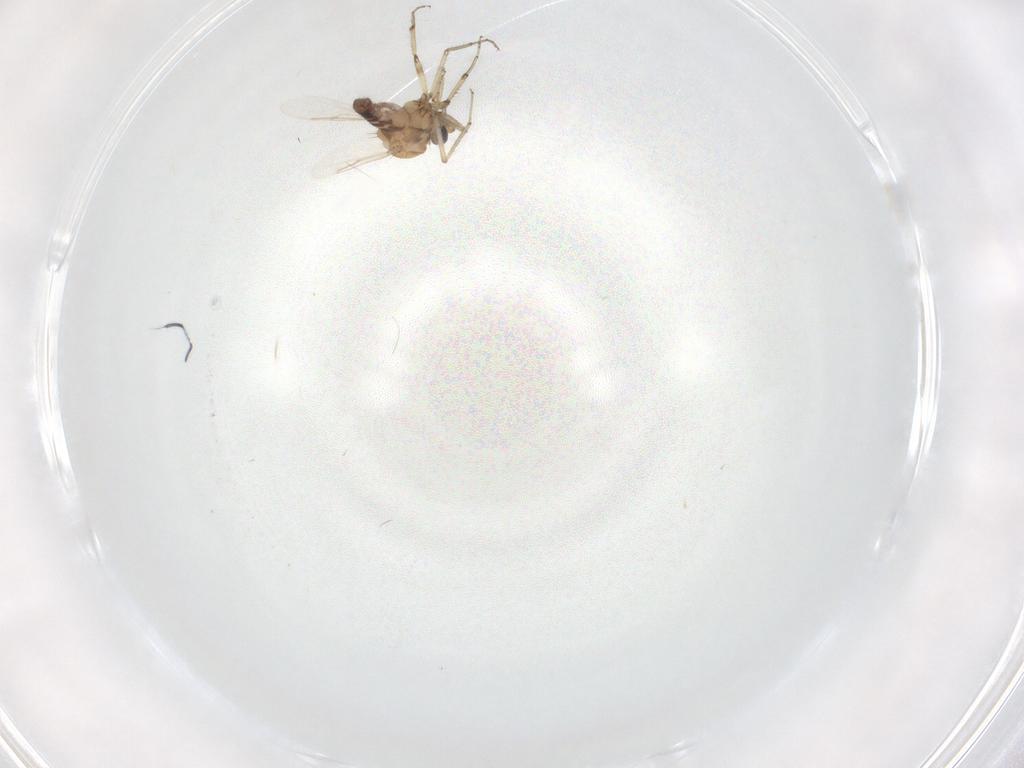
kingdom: Animalia
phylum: Arthropoda
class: Insecta
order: Diptera
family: Ceratopogonidae
